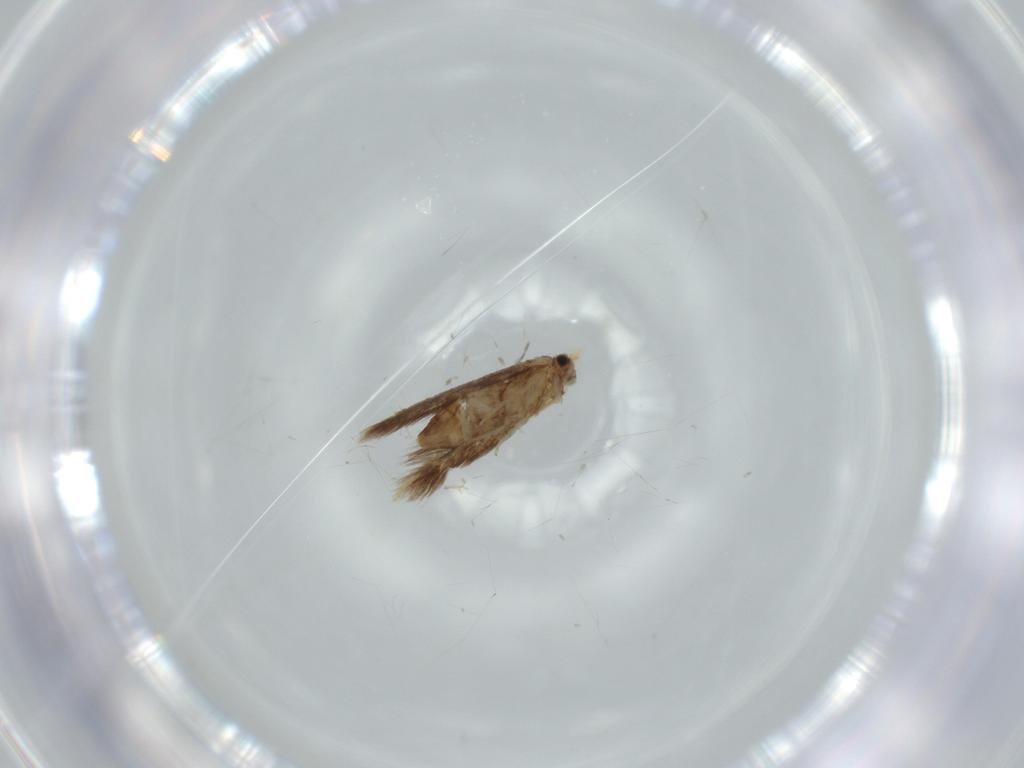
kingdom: Animalia
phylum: Arthropoda
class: Insecta
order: Lepidoptera
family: Nepticulidae
